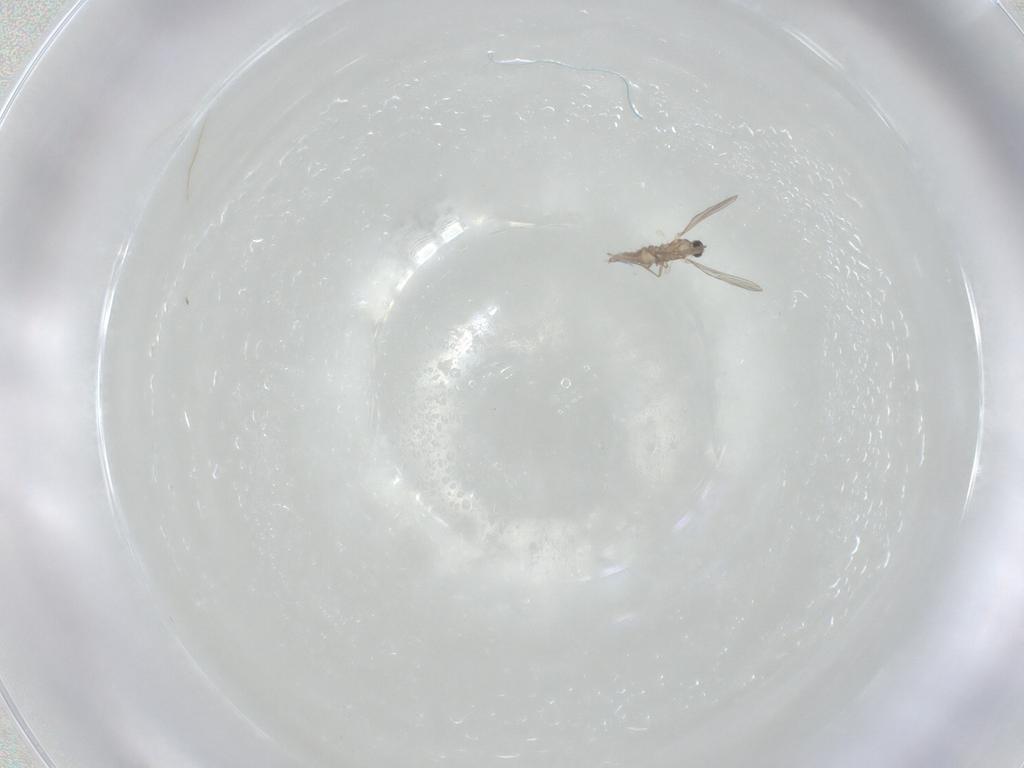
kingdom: Animalia
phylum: Arthropoda
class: Insecta
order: Diptera
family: Cecidomyiidae
